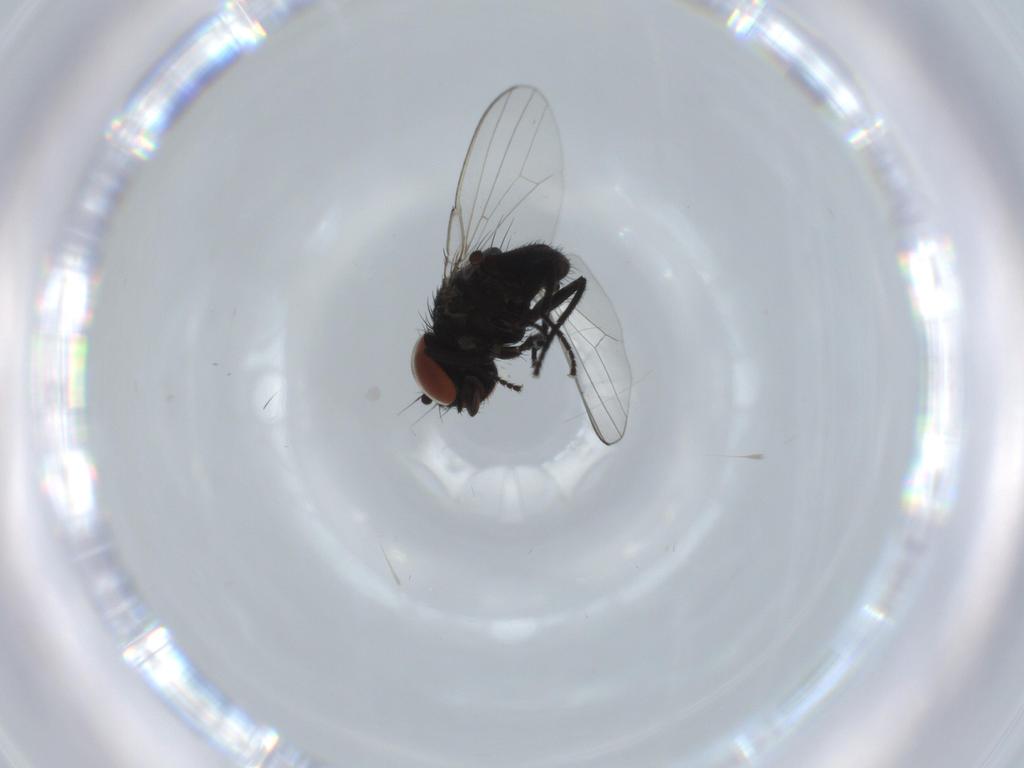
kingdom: Animalia
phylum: Arthropoda
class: Insecta
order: Diptera
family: Milichiidae
